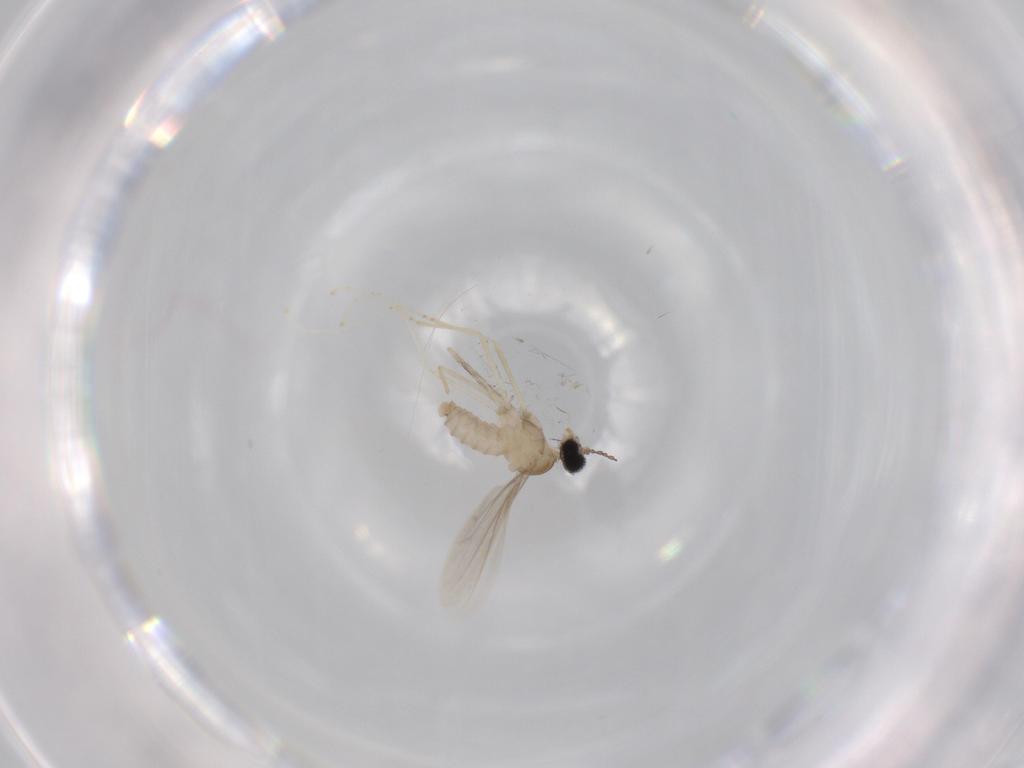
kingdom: Animalia
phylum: Arthropoda
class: Insecta
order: Diptera
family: Cecidomyiidae
